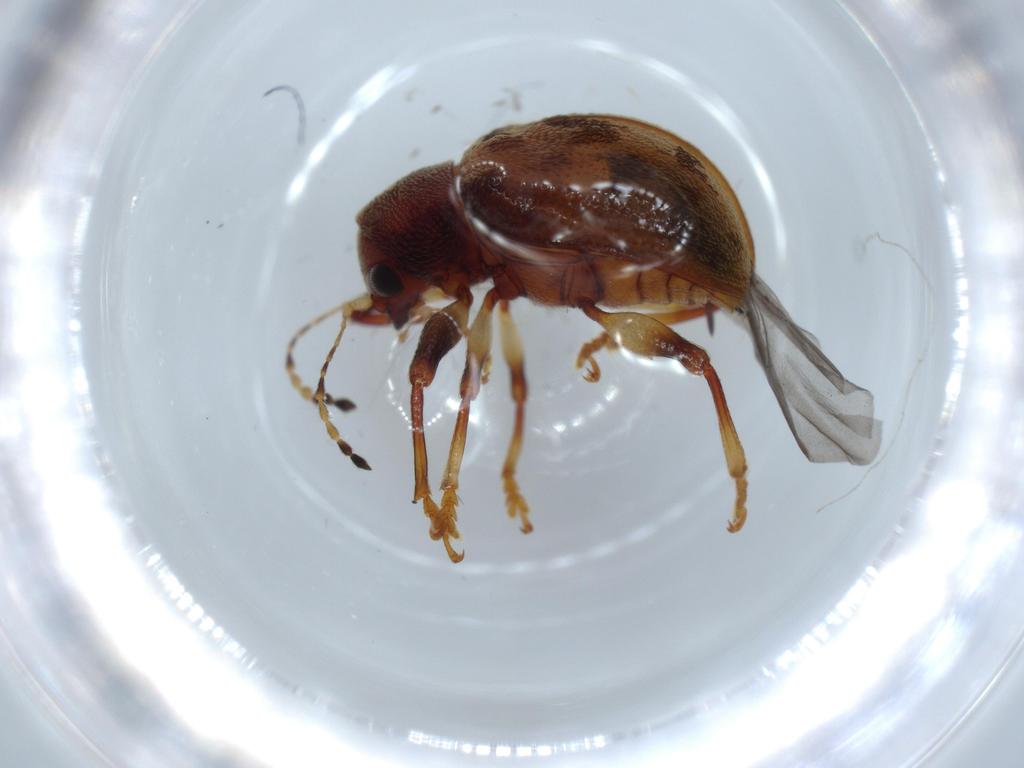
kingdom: Animalia
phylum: Arthropoda
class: Insecta
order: Coleoptera
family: Chrysomelidae
